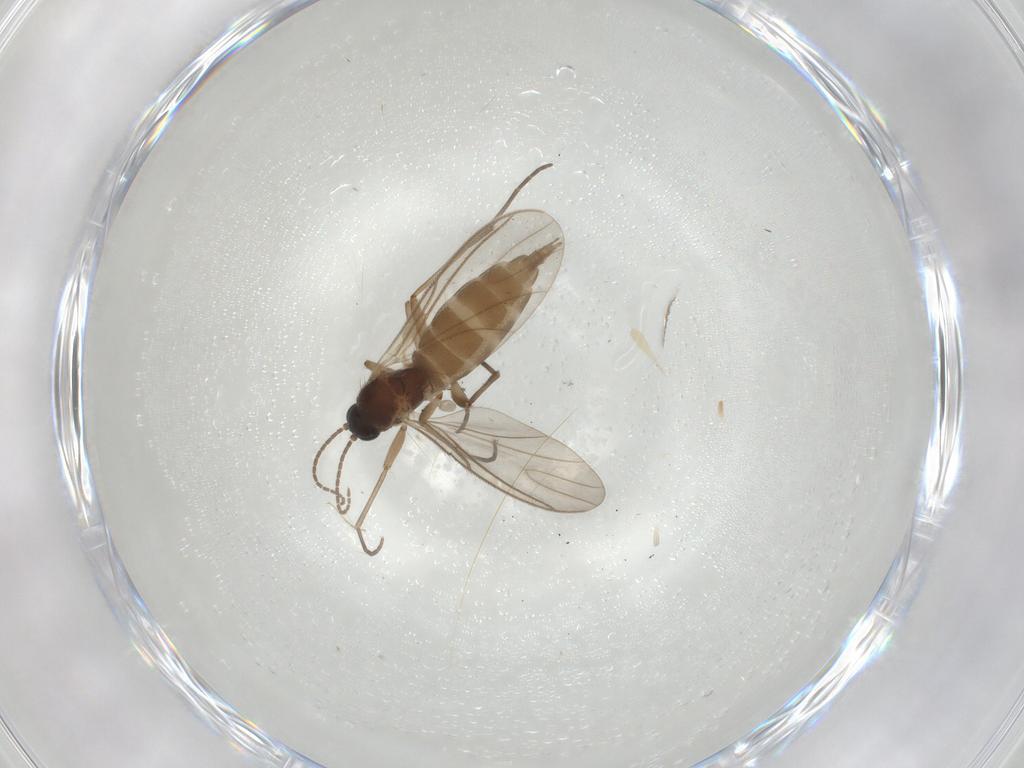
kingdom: Animalia
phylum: Arthropoda
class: Insecta
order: Diptera
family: Sciaridae
